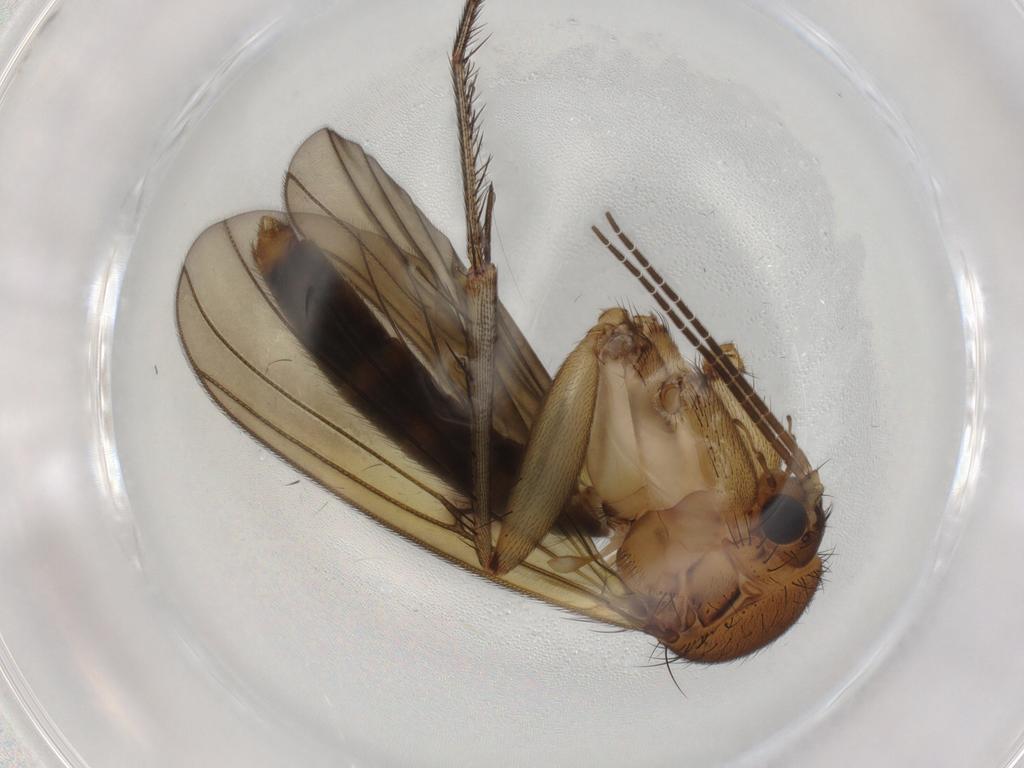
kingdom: Animalia
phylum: Arthropoda
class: Insecta
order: Diptera
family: Mycetophilidae
